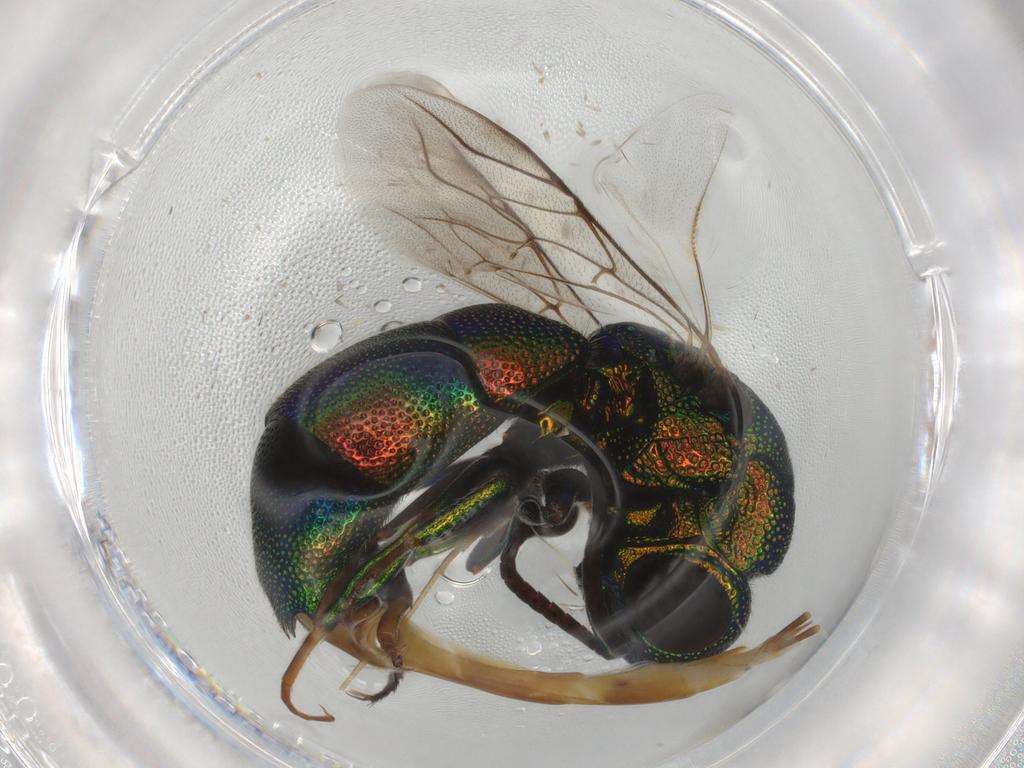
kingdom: Animalia
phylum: Arthropoda
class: Insecta
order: Hymenoptera
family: Chrysididae
